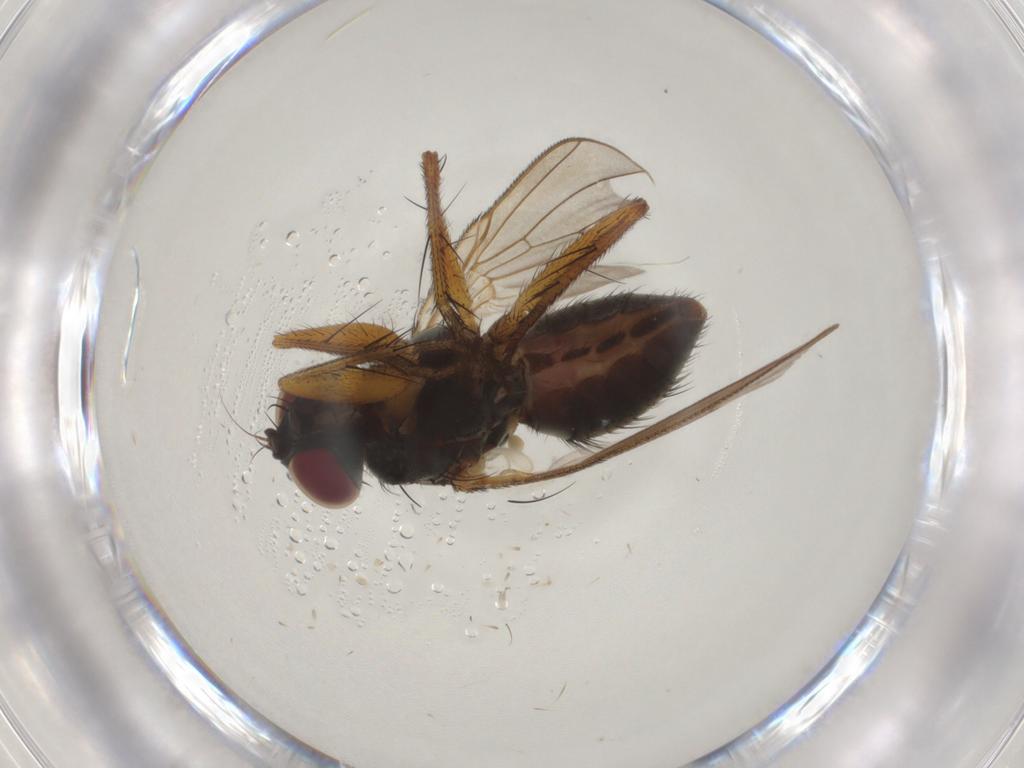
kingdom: Animalia
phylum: Arthropoda
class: Insecta
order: Diptera
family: Muscidae
